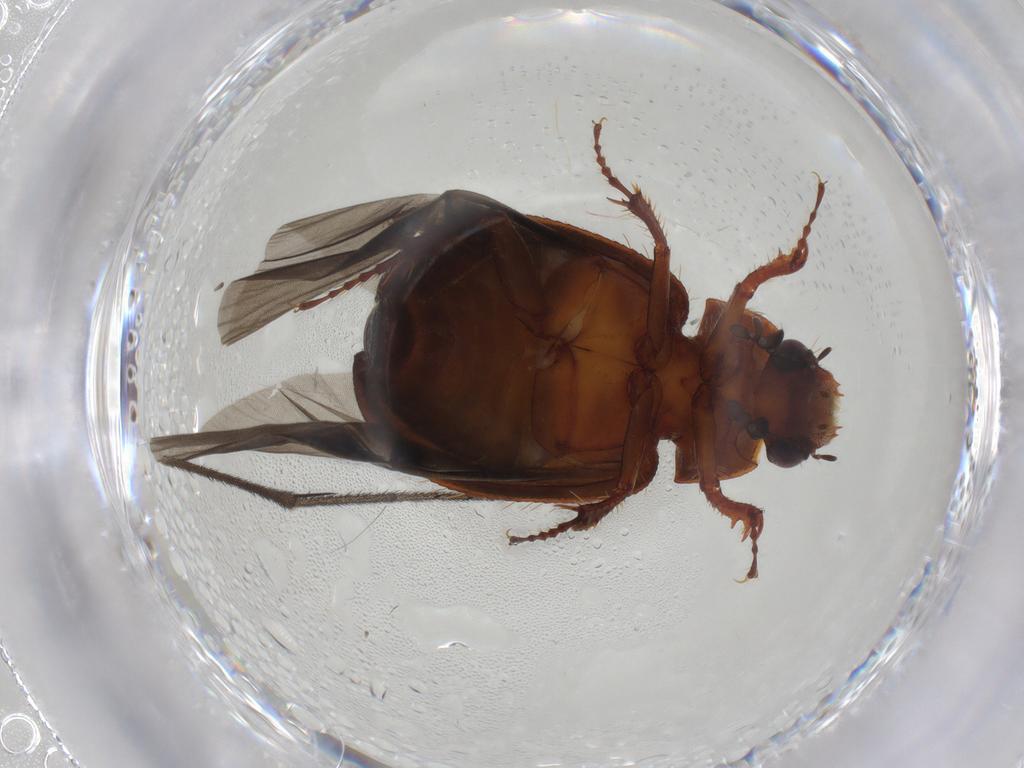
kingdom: Animalia
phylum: Arthropoda
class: Insecta
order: Coleoptera
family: Hybosoridae
